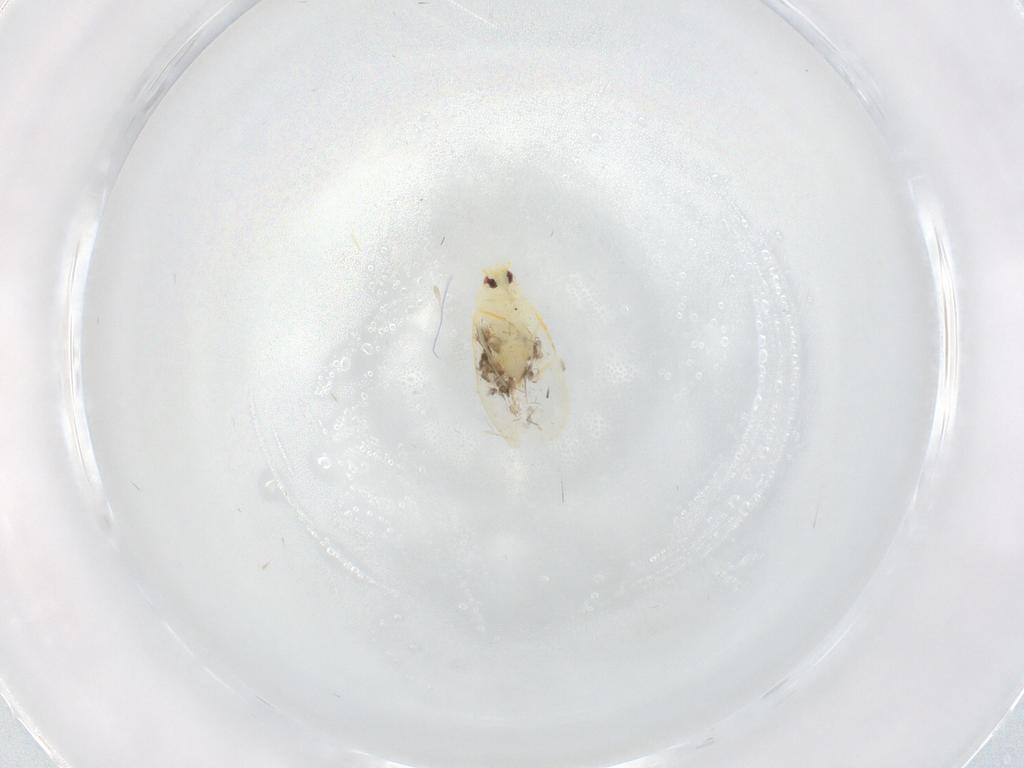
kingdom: Animalia
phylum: Arthropoda
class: Insecta
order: Hemiptera
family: Aleyrodidae
